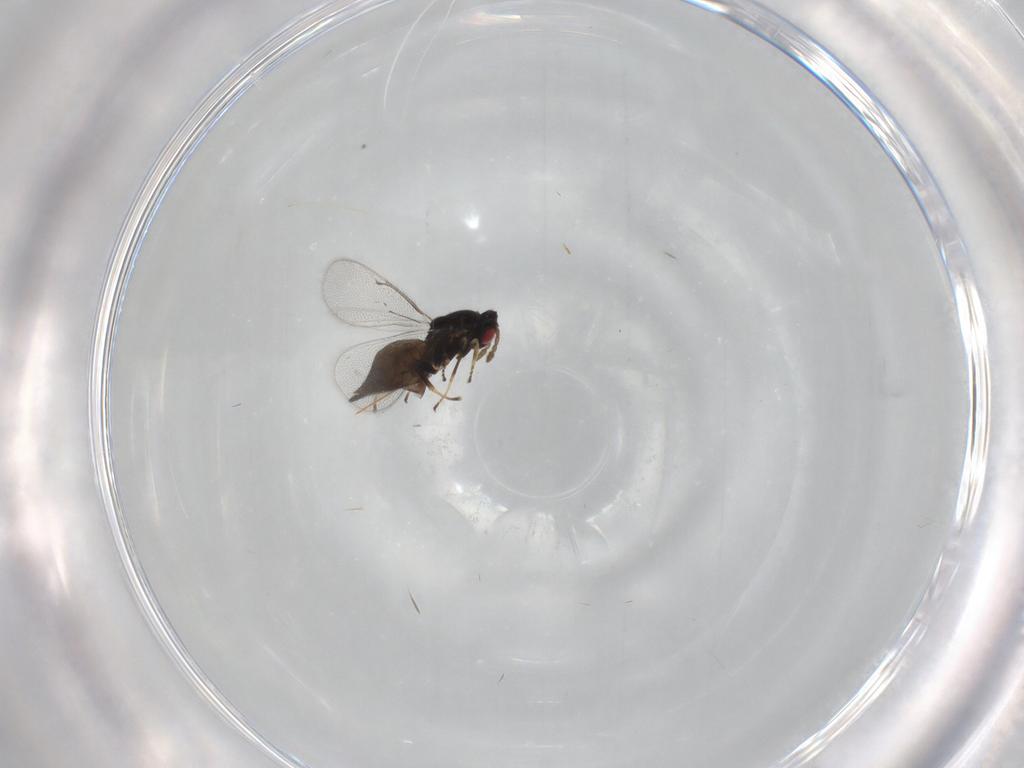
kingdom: Animalia
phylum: Arthropoda
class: Insecta
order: Hymenoptera
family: Eulophidae
